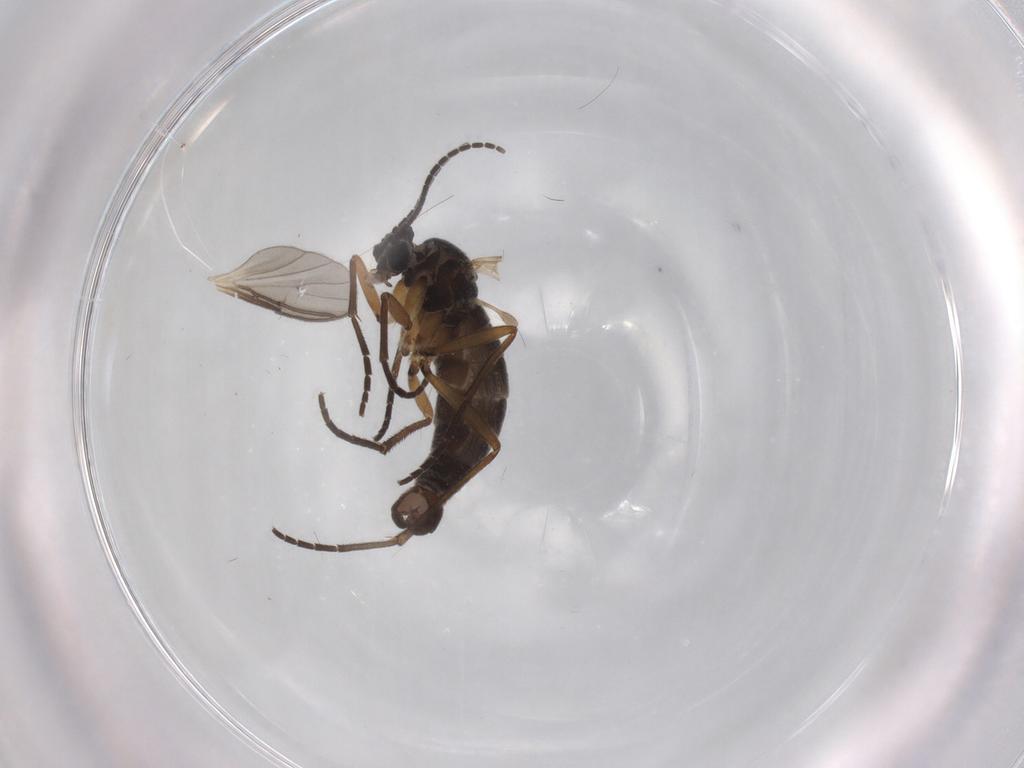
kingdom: Animalia
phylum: Arthropoda
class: Insecta
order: Diptera
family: Sciaridae
